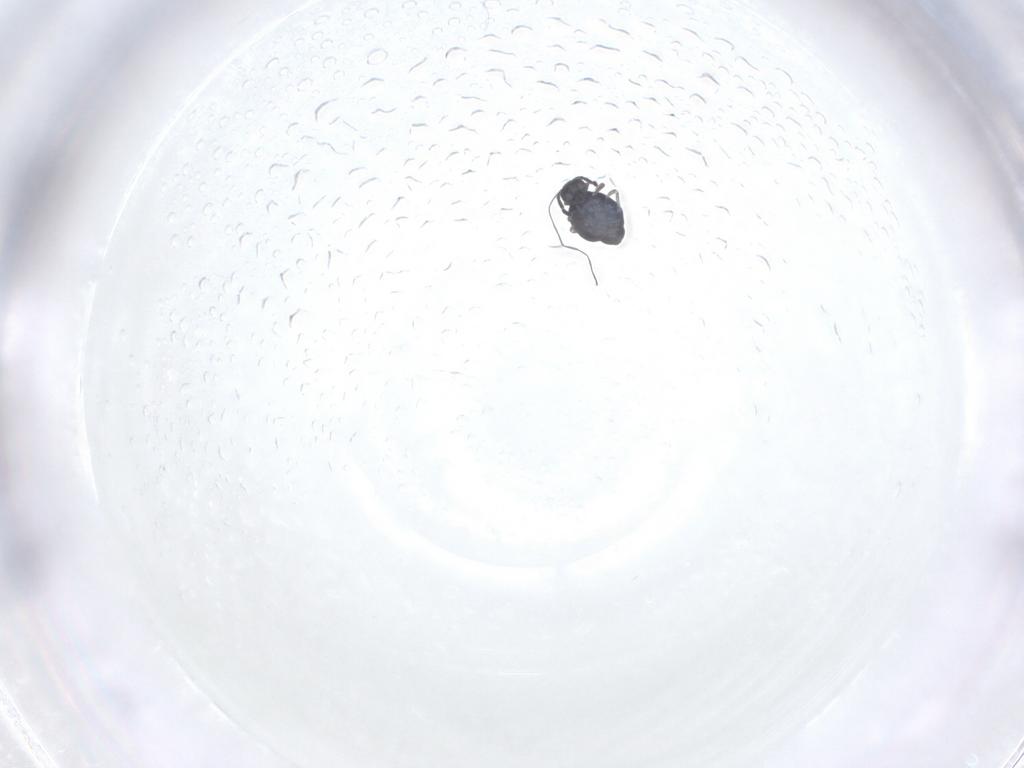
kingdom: Animalia
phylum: Arthropoda
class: Collembola
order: Symphypleona
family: Katiannidae
